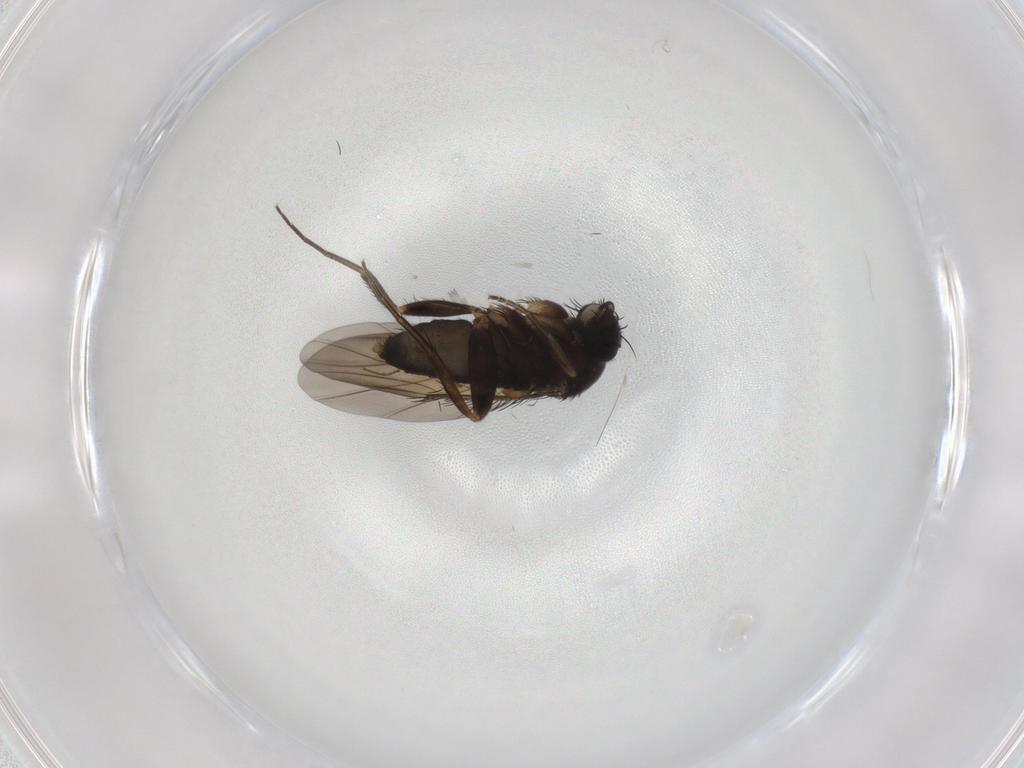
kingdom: Animalia
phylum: Arthropoda
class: Insecta
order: Diptera
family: Phoridae
